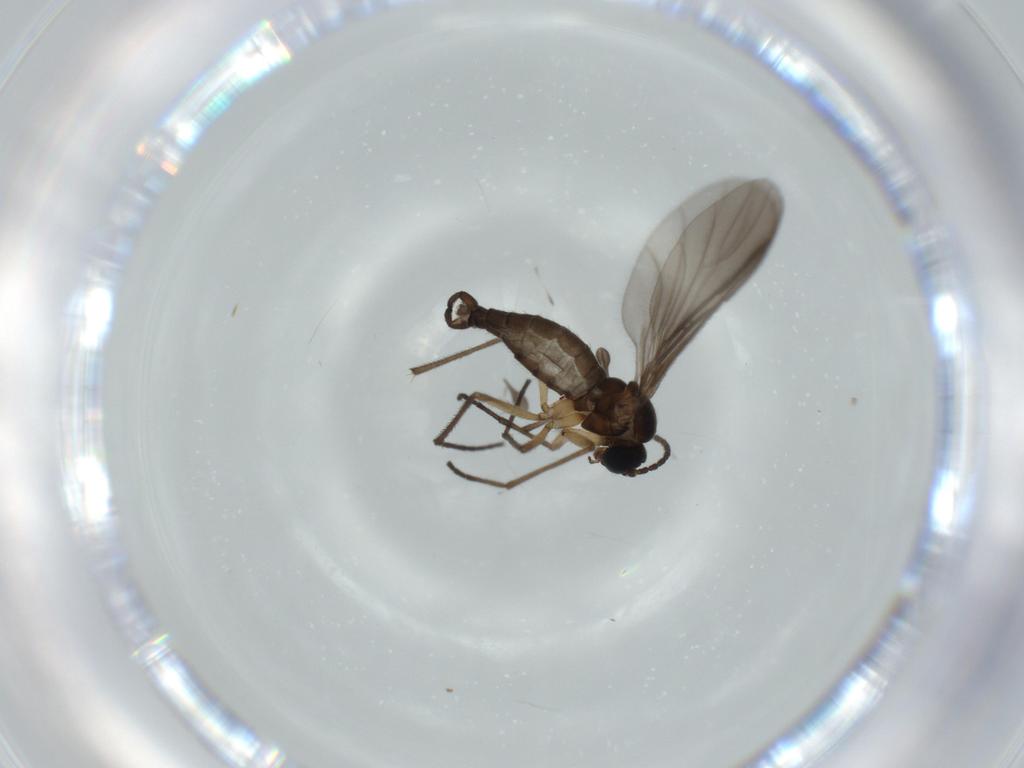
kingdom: Animalia
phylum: Arthropoda
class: Insecta
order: Diptera
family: Sciaridae
